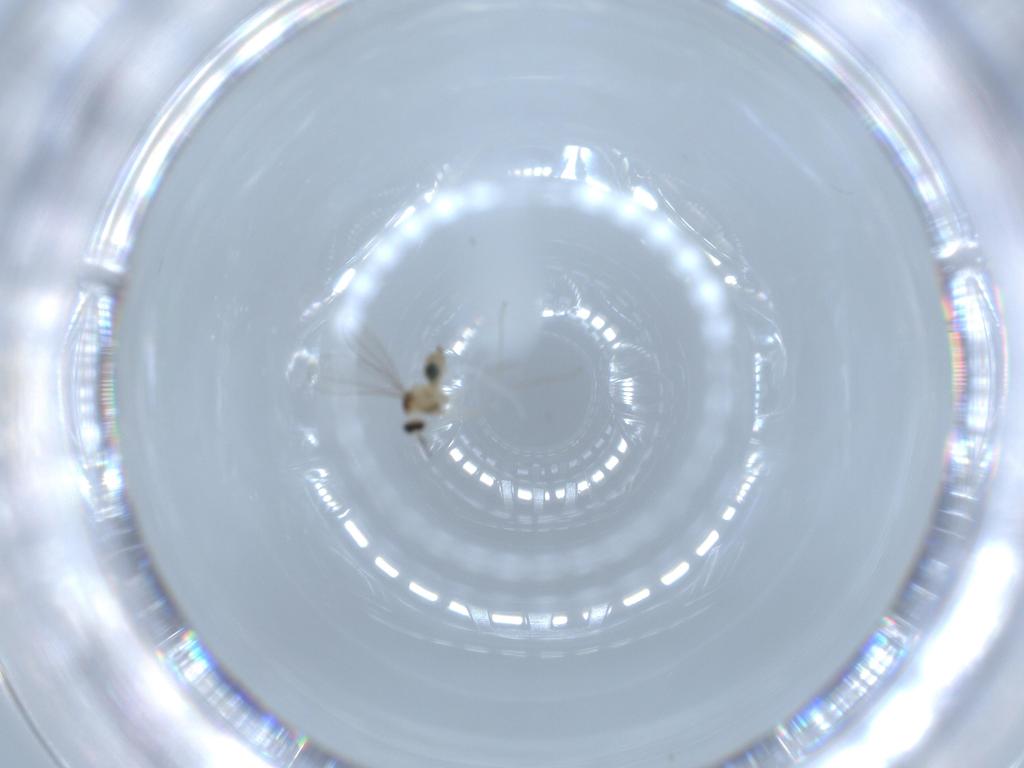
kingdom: Animalia
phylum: Arthropoda
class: Insecta
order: Diptera
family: Cecidomyiidae
